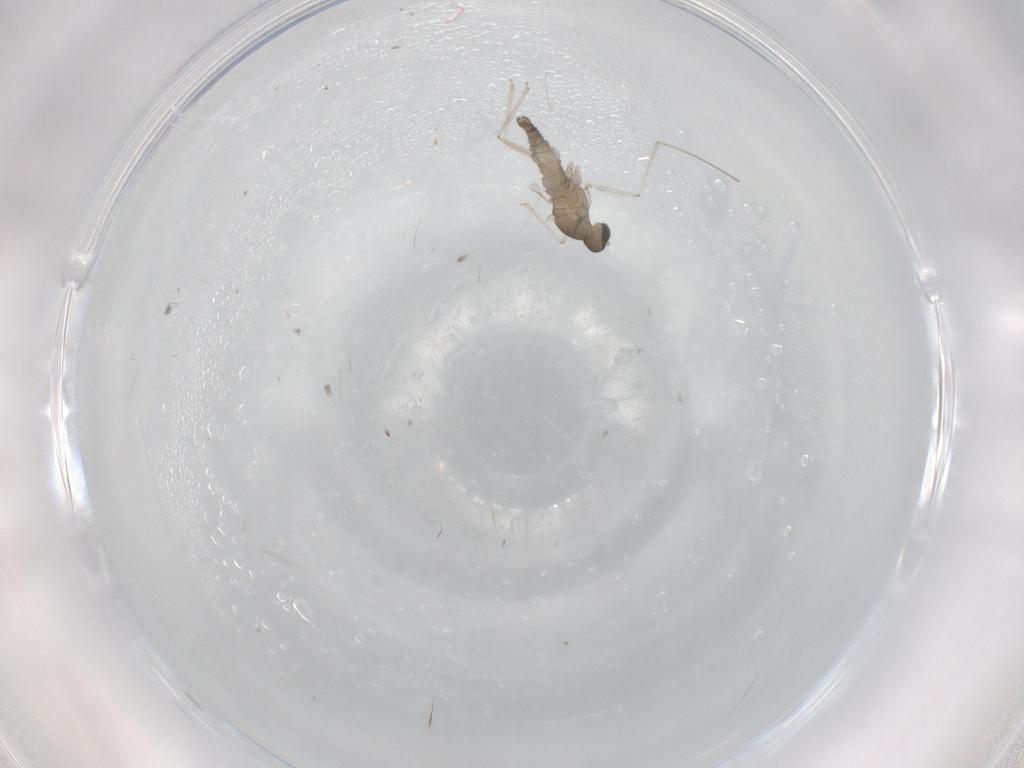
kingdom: Animalia
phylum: Arthropoda
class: Insecta
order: Diptera
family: Cecidomyiidae
